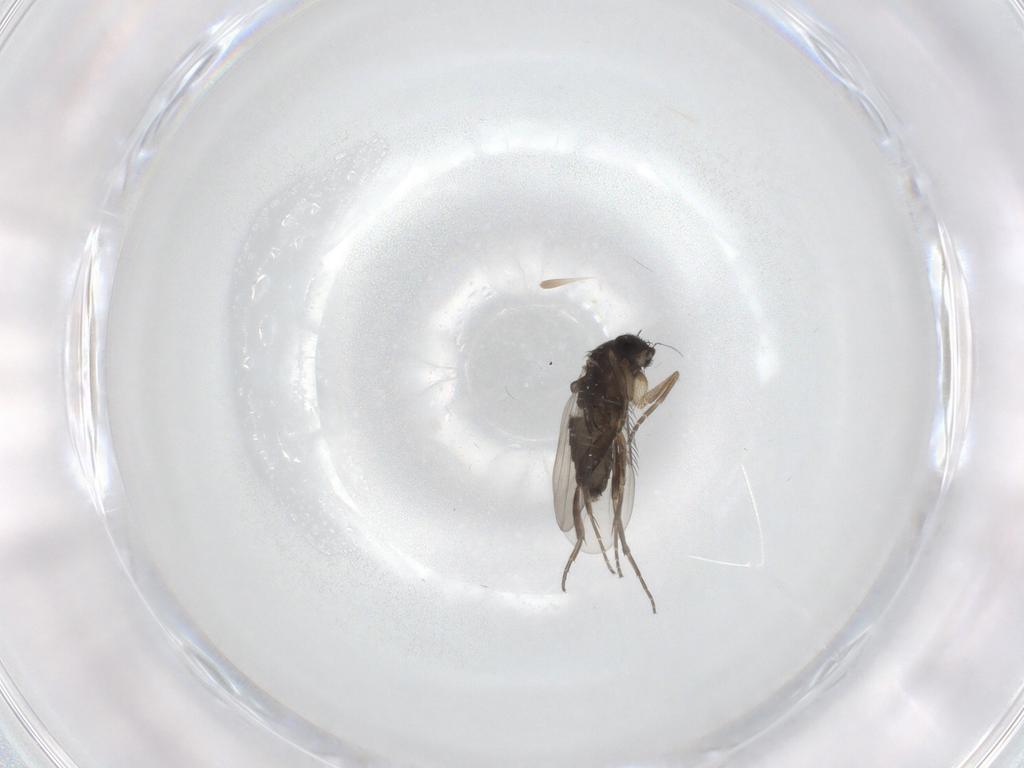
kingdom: Animalia
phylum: Arthropoda
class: Insecta
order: Diptera
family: Phoridae
